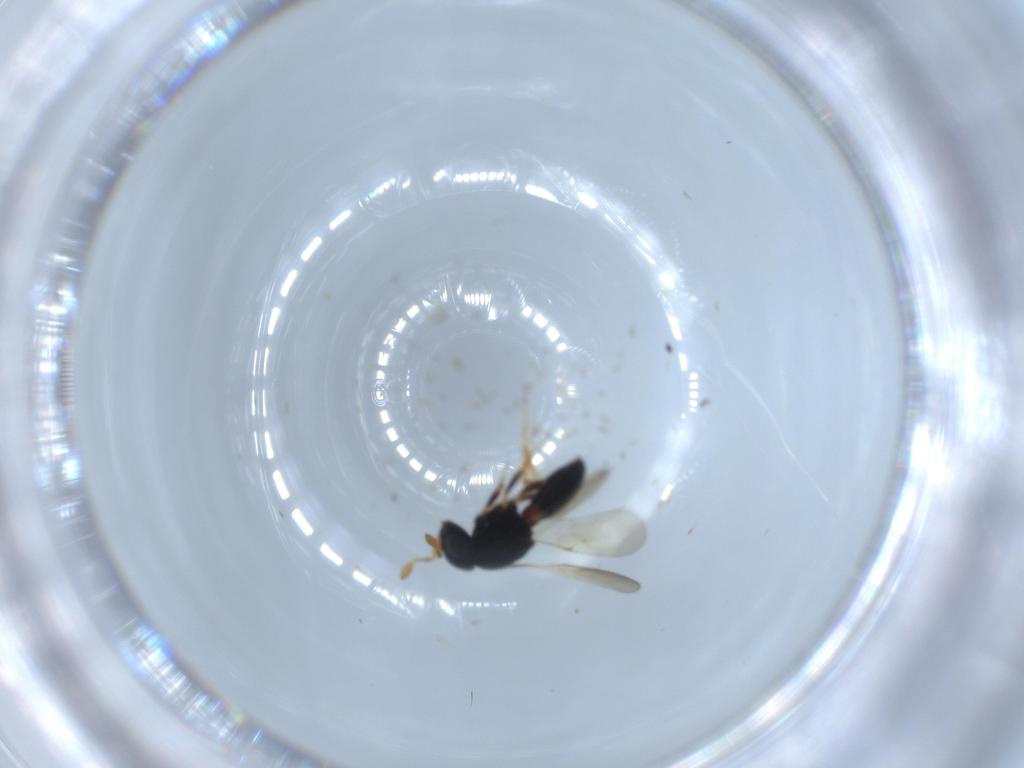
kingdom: Animalia
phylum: Arthropoda
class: Insecta
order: Hymenoptera
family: Scelionidae
